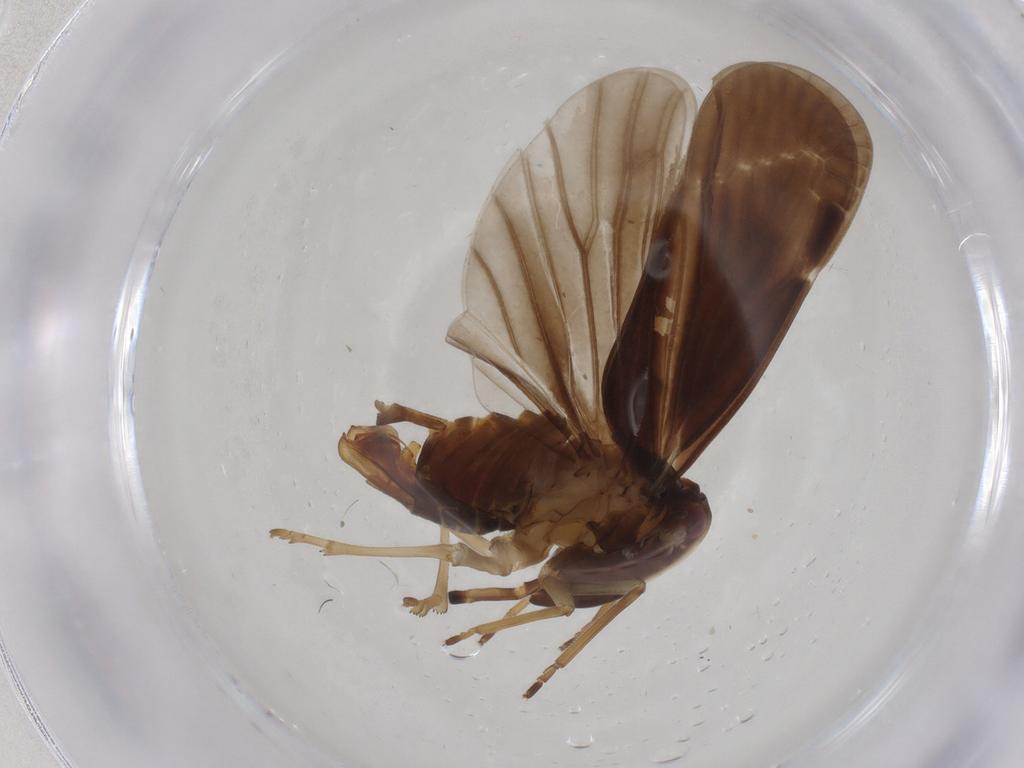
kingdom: Animalia
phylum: Arthropoda
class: Insecta
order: Hemiptera
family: Derbidae
